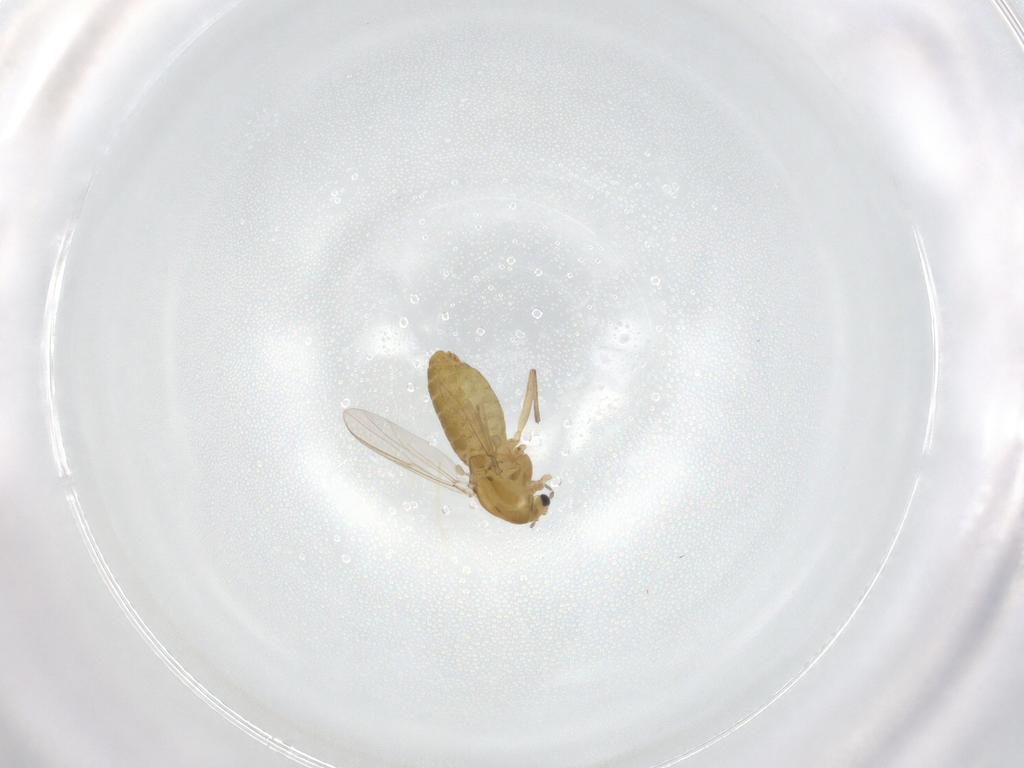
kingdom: Animalia
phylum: Arthropoda
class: Insecta
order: Diptera
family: Chironomidae
